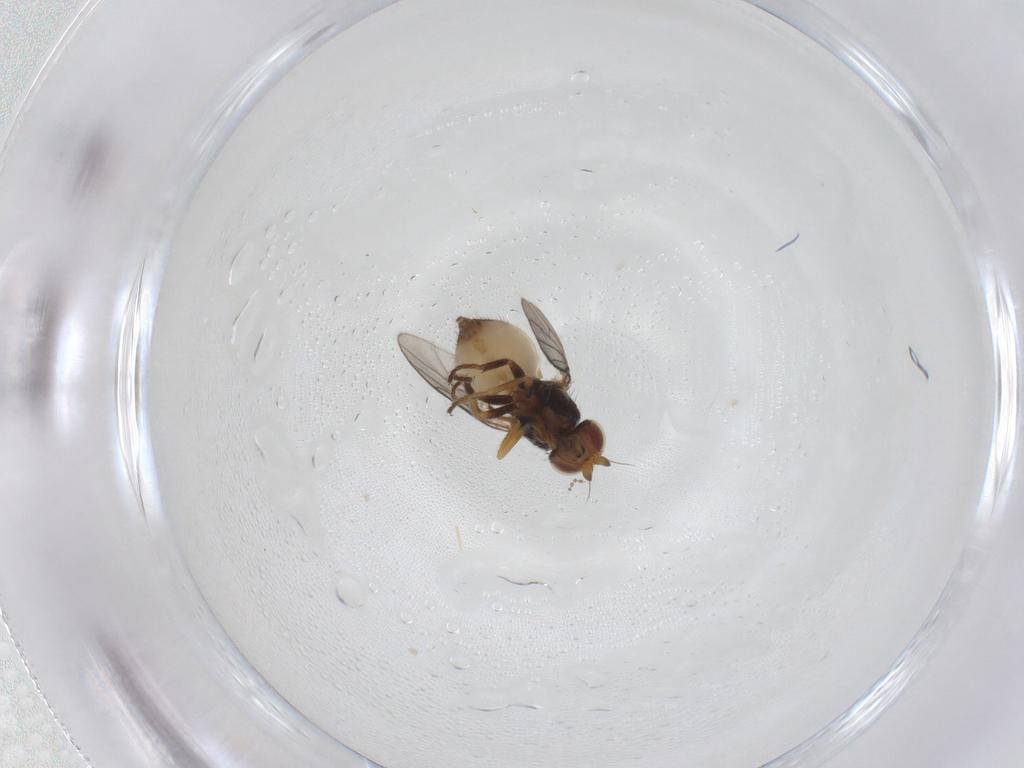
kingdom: Animalia
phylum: Arthropoda
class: Insecta
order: Diptera
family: Chloropidae
